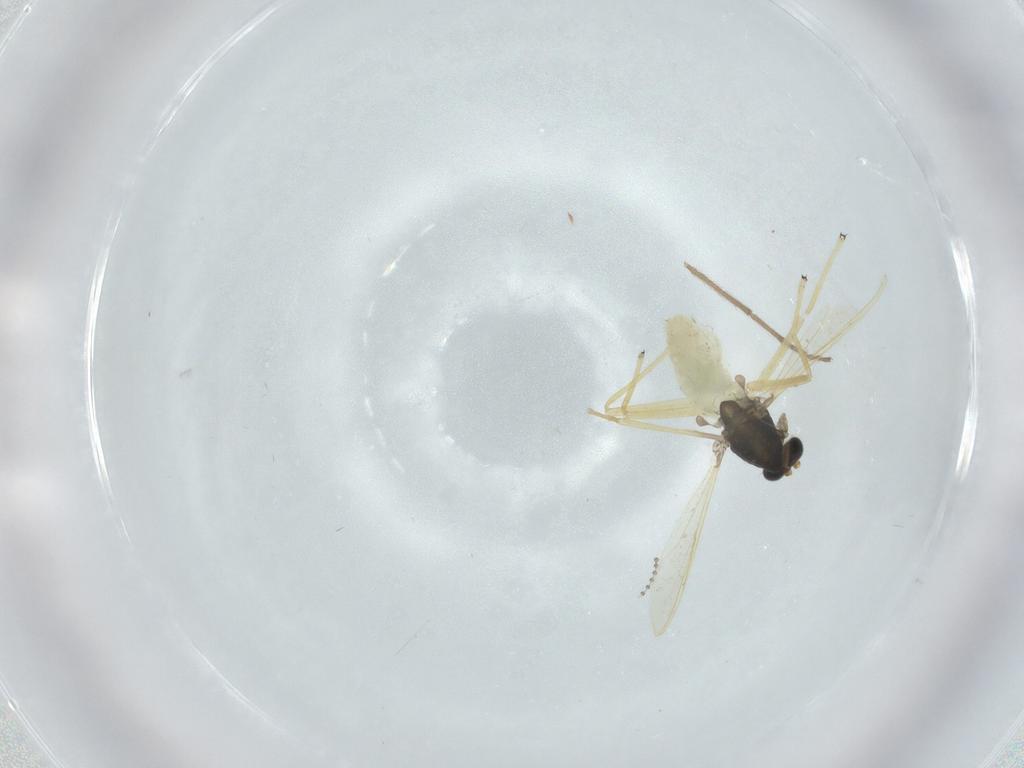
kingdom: Animalia
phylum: Arthropoda
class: Insecta
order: Diptera
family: Chironomidae
